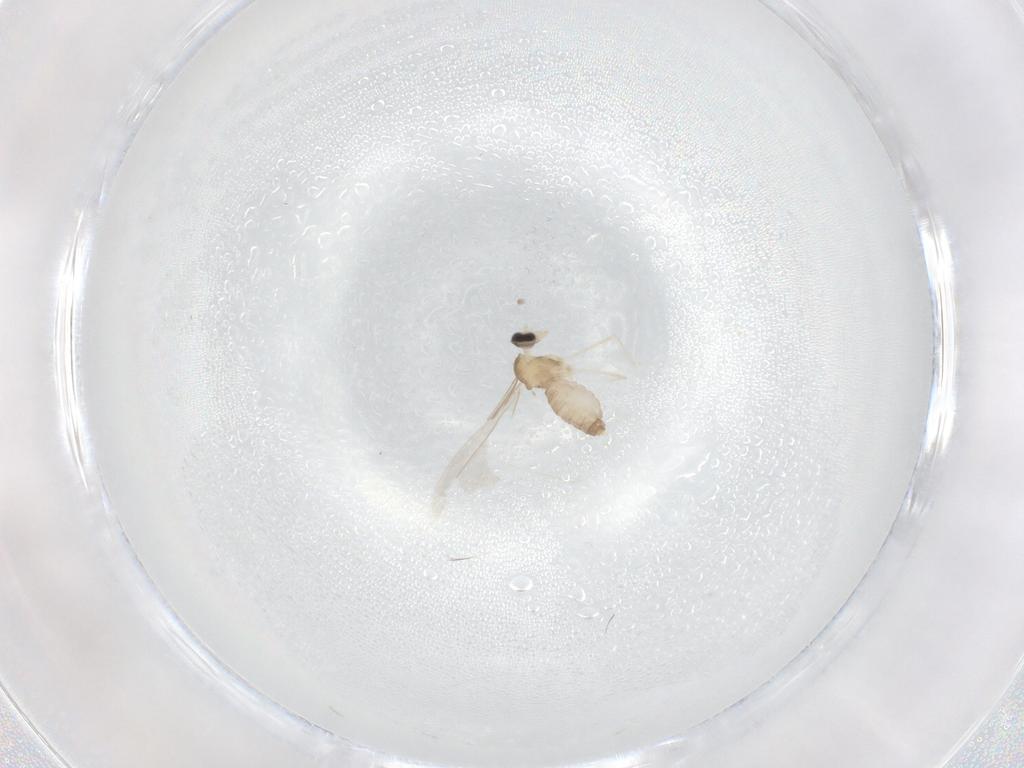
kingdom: Animalia
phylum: Arthropoda
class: Insecta
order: Diptera
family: Cecidomyiidae
